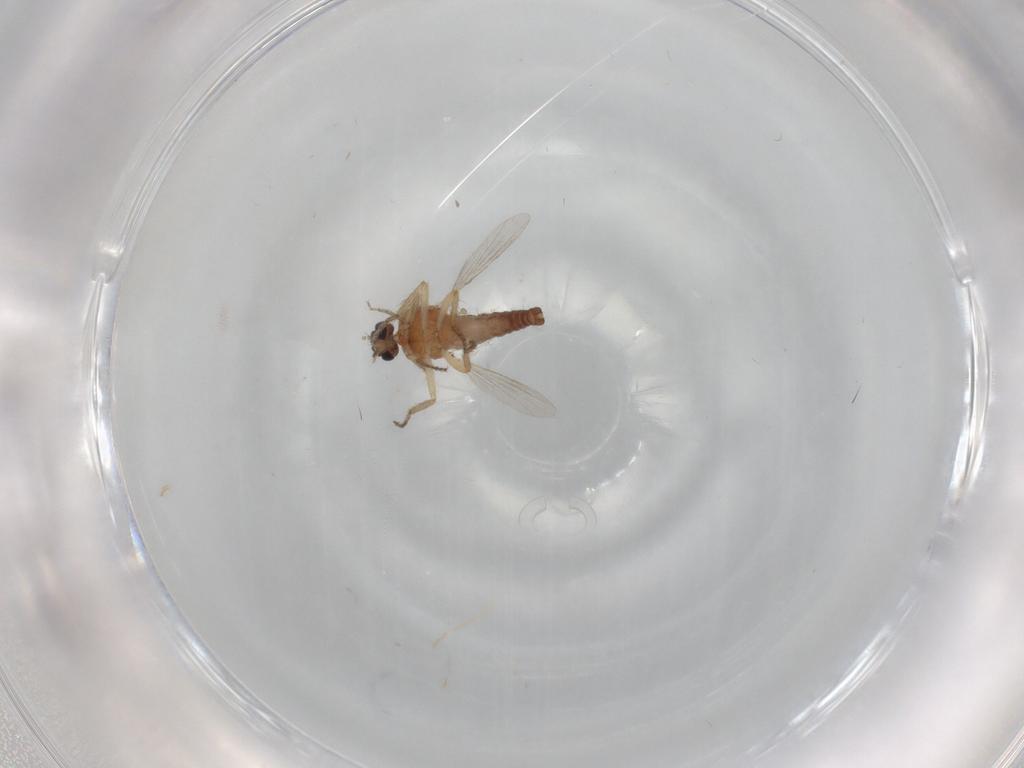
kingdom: Animalia
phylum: Arthropoda
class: Insecta
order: Diptera
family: Ceratopogonidae
